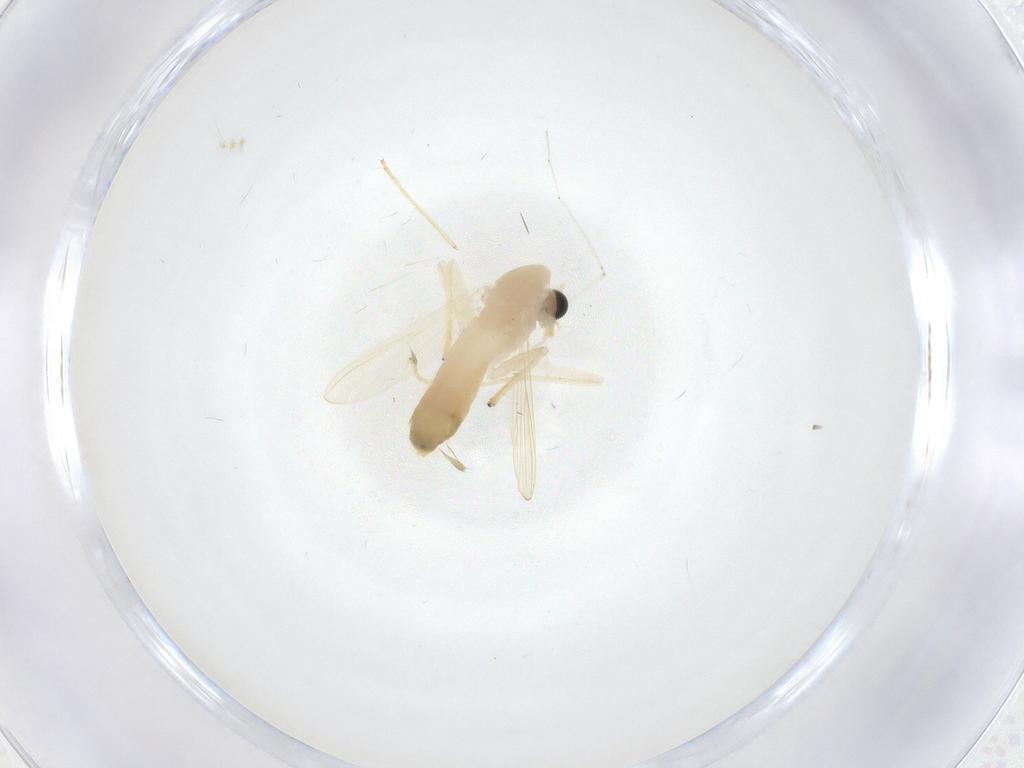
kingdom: Animalia
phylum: Arthropoda
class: Insecta
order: Diptera
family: Chironomidae
